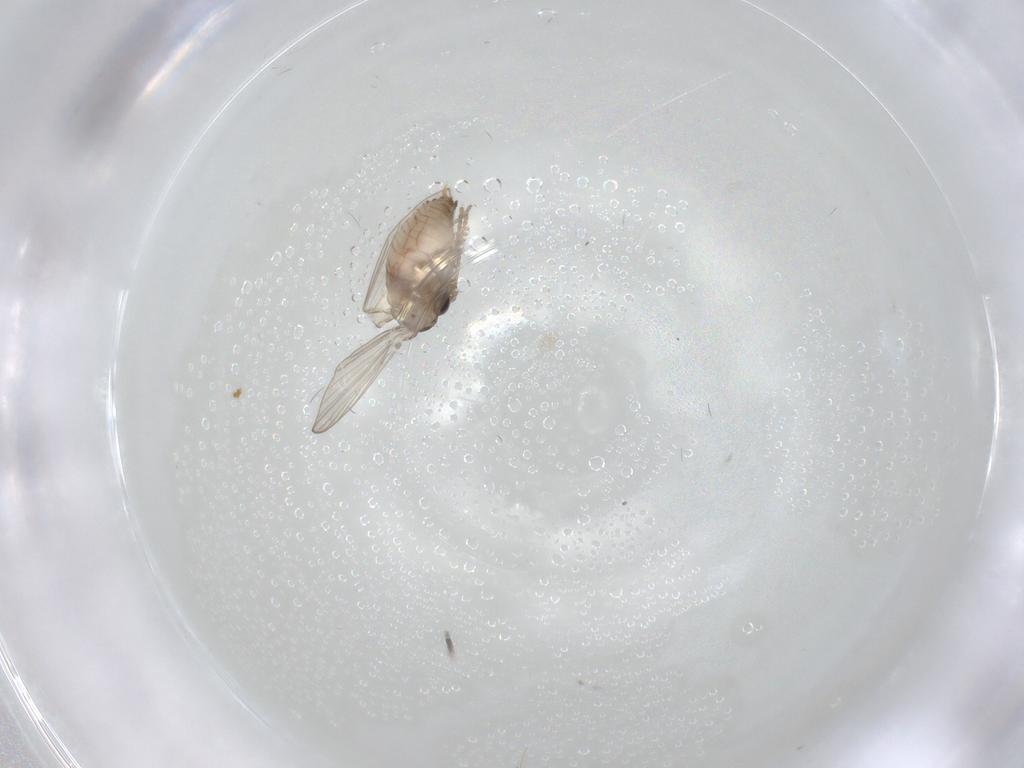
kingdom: Animalia
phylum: Arthropoda
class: Insecta
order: Diptera
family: Psychodidae
